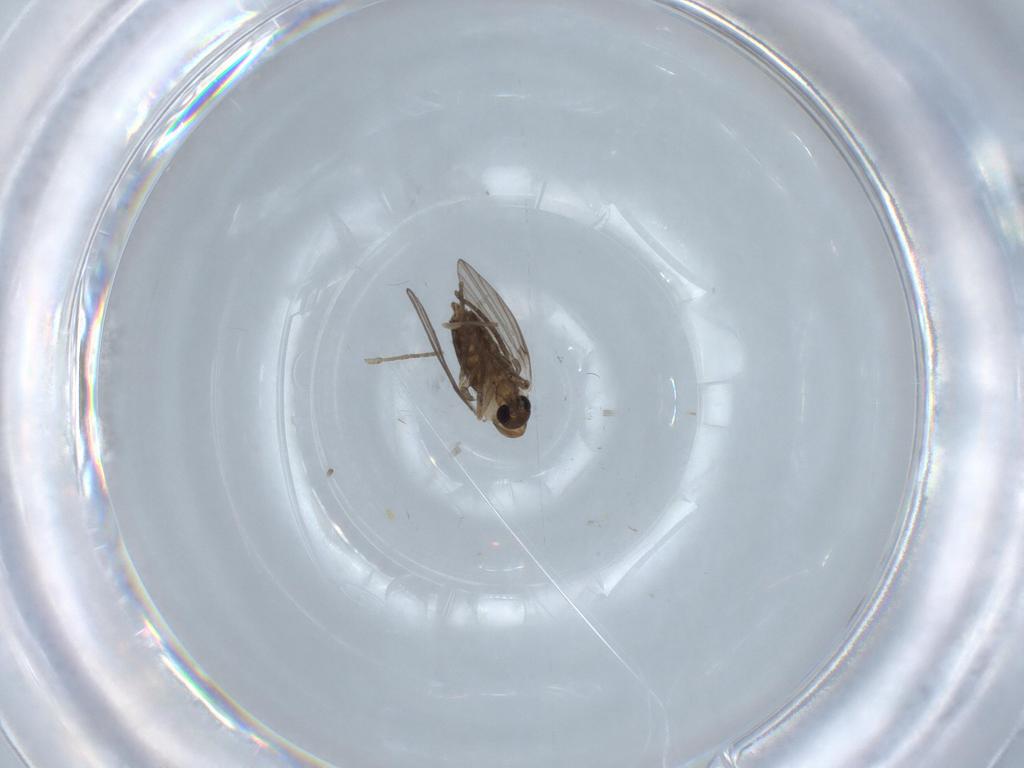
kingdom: Animalia
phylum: Arthropoda
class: Insecta
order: Diptera
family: Psychodidae
